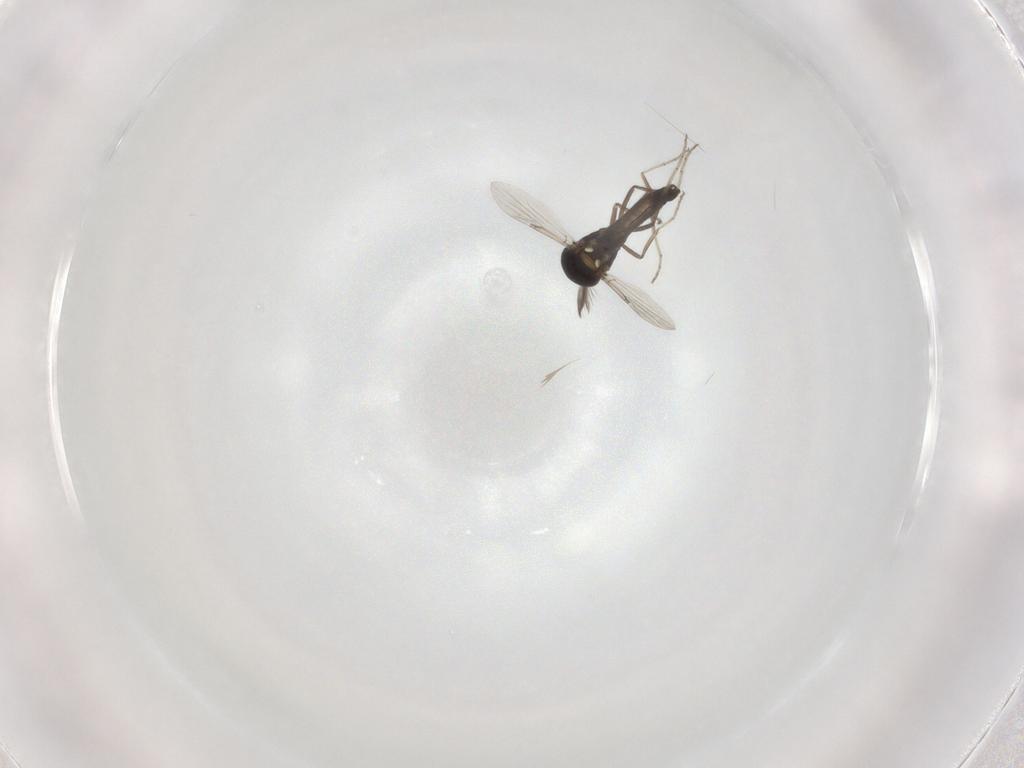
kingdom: Animalia
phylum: Arthropoda
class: Insecta
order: Diptera
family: Ceratopogonidae
